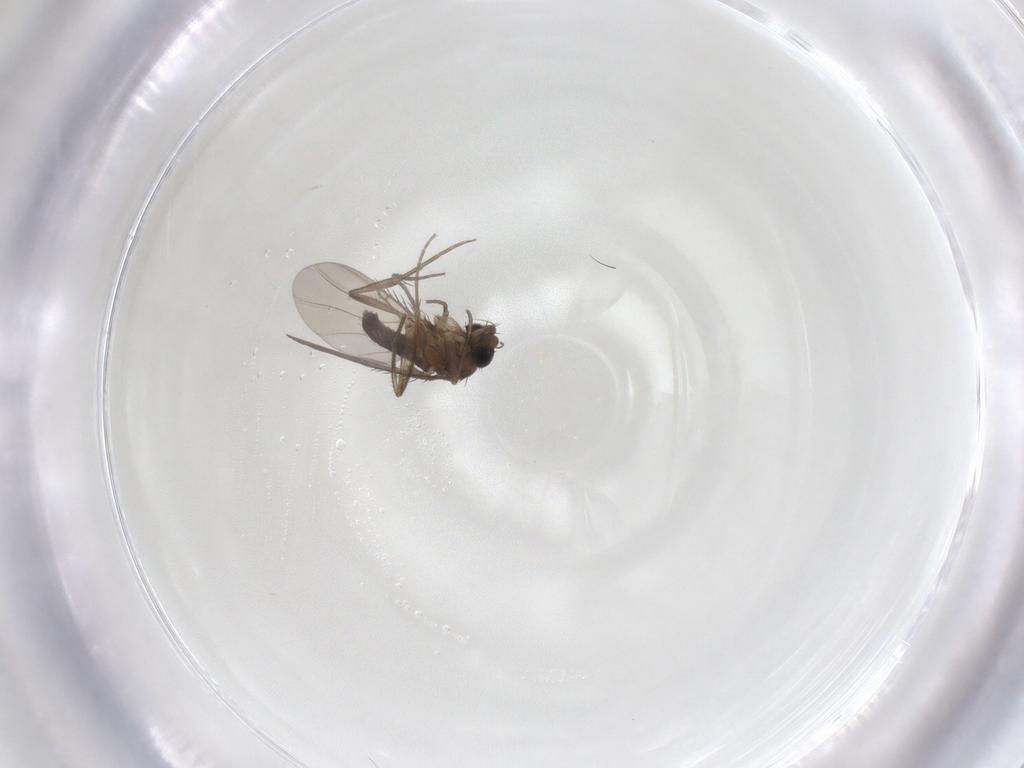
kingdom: Animalia
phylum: Arthropoda
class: Insecta
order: Diptera
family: Phoridae
